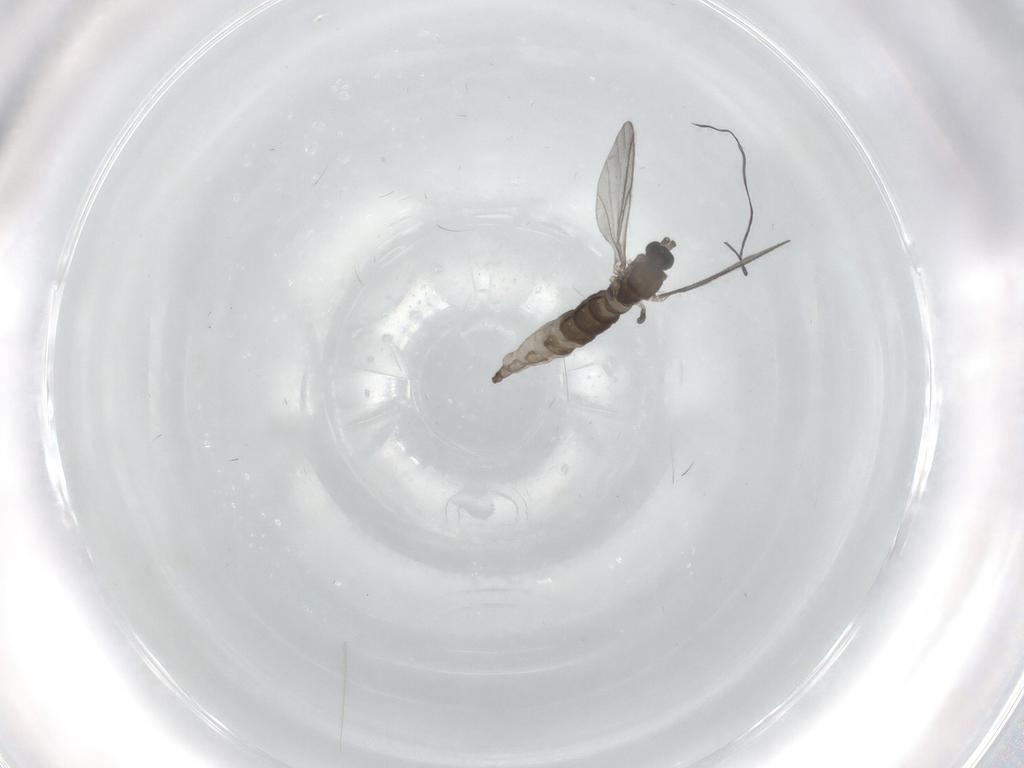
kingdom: Animalia
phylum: Arthropoda
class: Insecta
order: Diptera
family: Sciaridae
